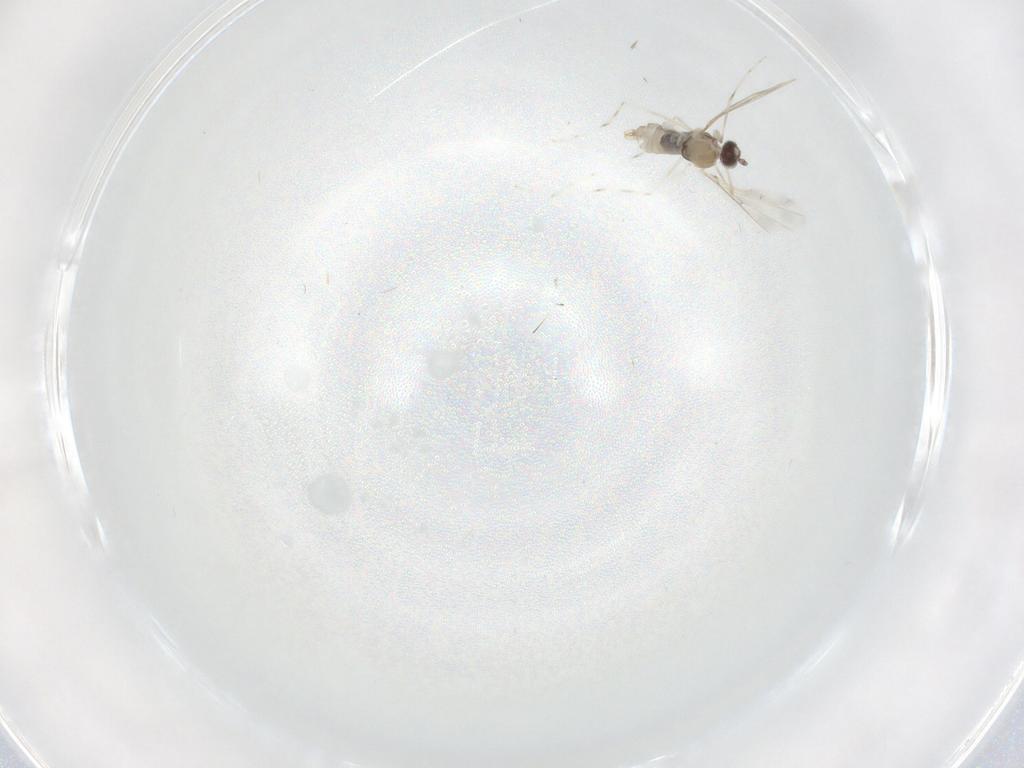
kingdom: Animalia
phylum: Arthropoda
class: Insecta
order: Diptera
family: Cecidomyiidae
